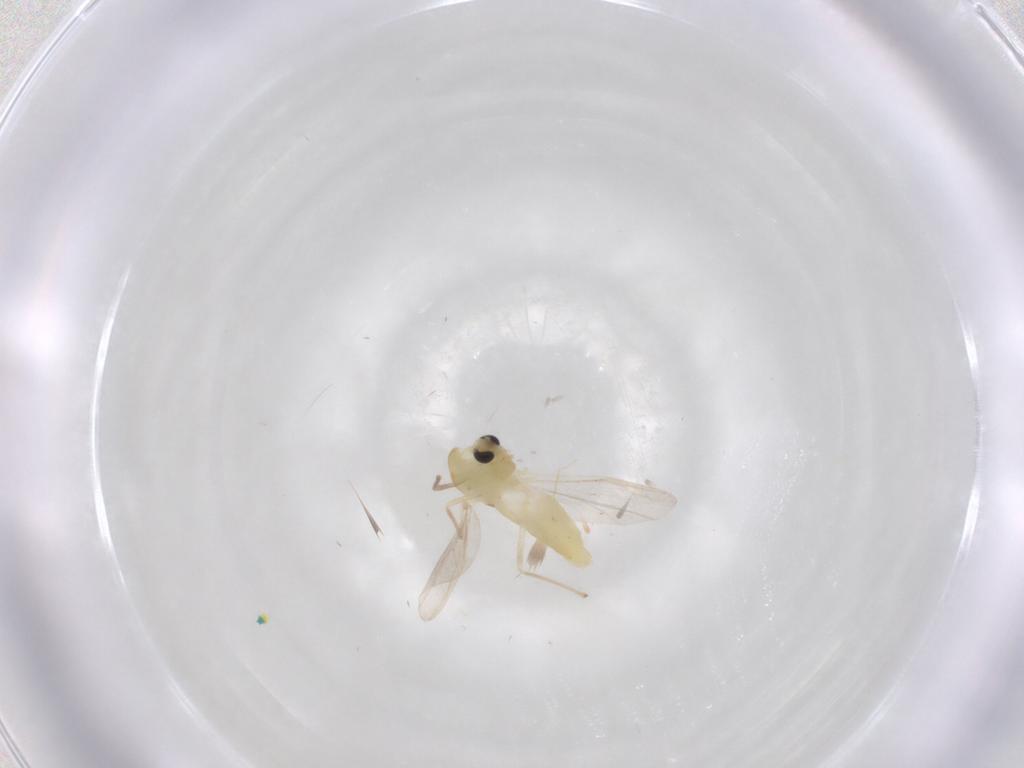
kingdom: Animalia
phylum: Arthropoda
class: Insecta
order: Diptera
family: Chironomidae
